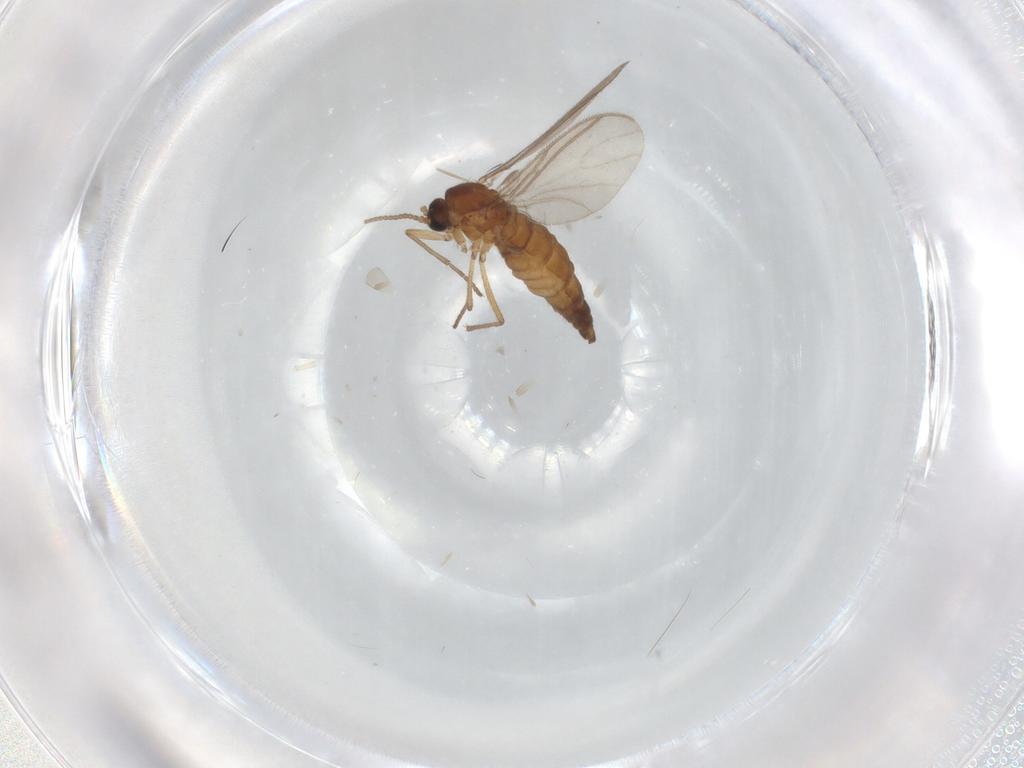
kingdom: Animalia
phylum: Arthropoda
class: Insecta
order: Diptera
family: Sciaridae
